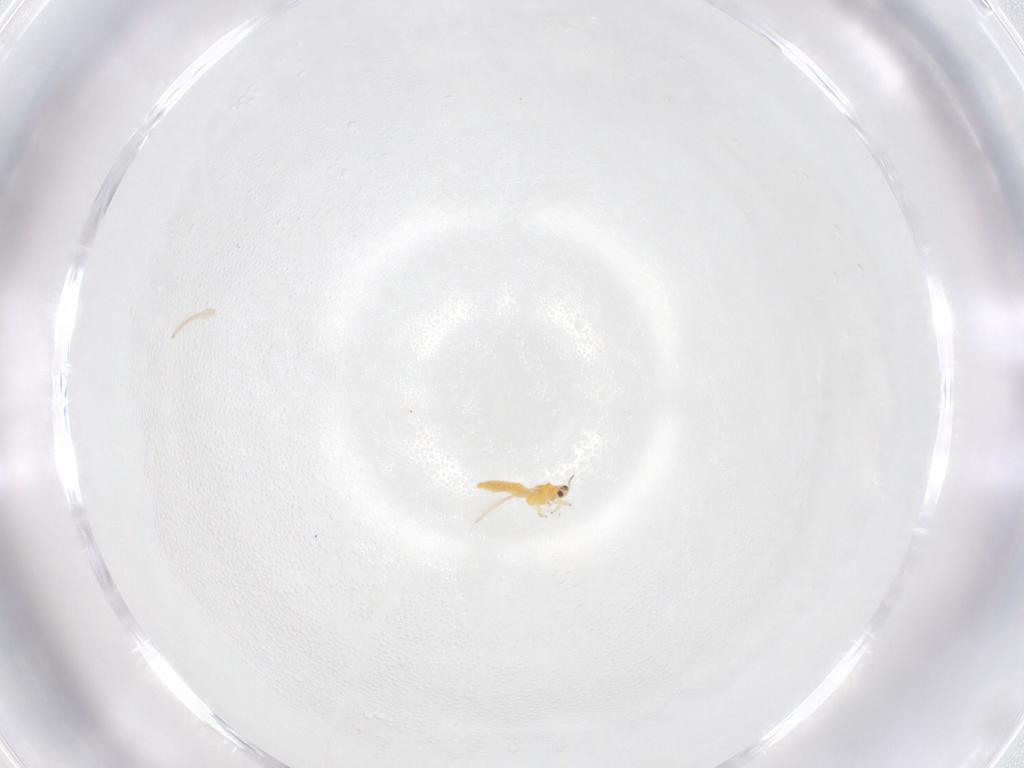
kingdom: Animalia
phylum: Arthropoda
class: Insecta
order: Thysanoptera
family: Thripidae
